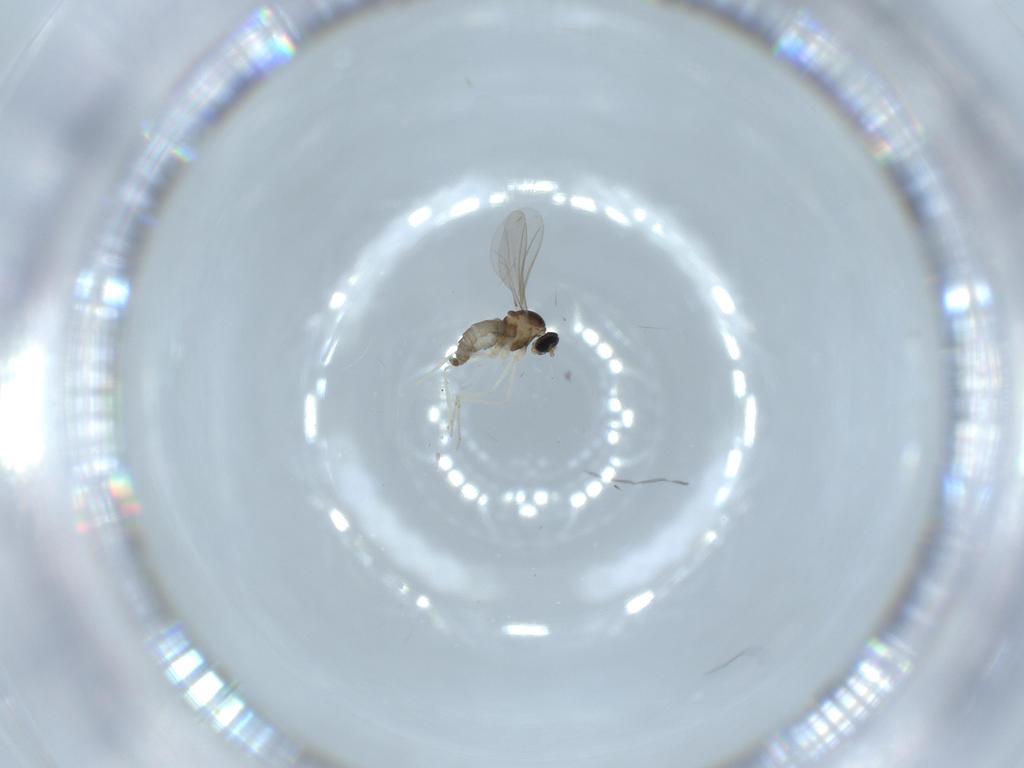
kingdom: Animalia
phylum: Arthropoda
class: Insecta
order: Diptera
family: Cecidomyiidae
